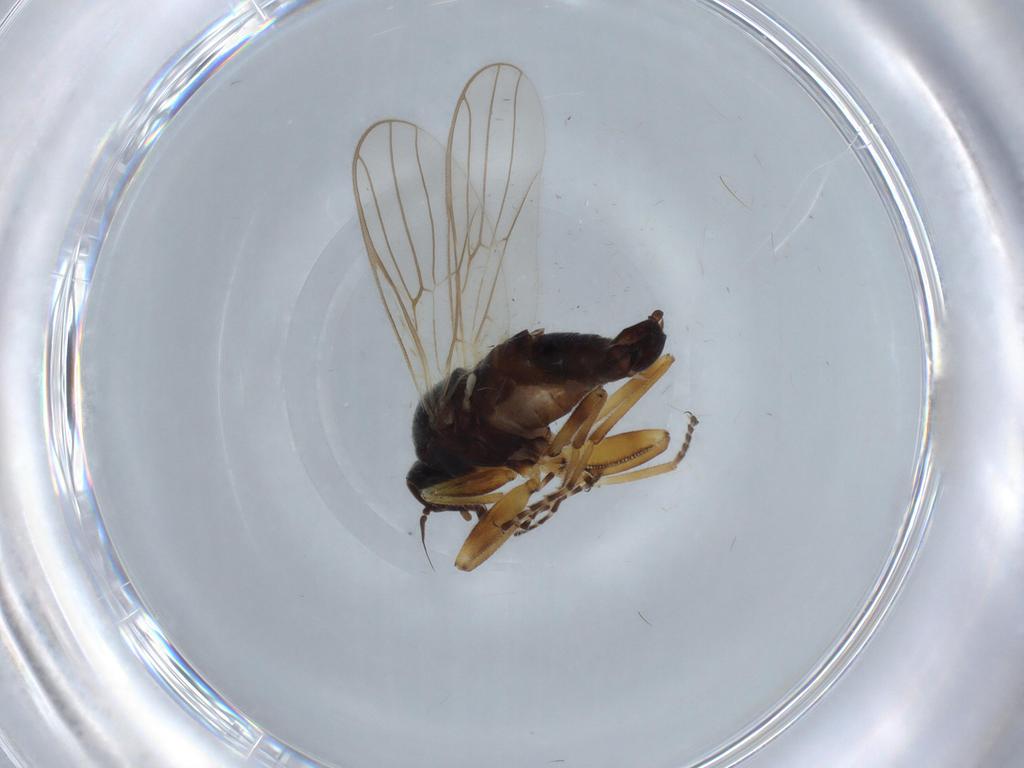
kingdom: Animalia
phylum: Arthropoda
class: Insecta
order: Diptera
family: Hybotidae
